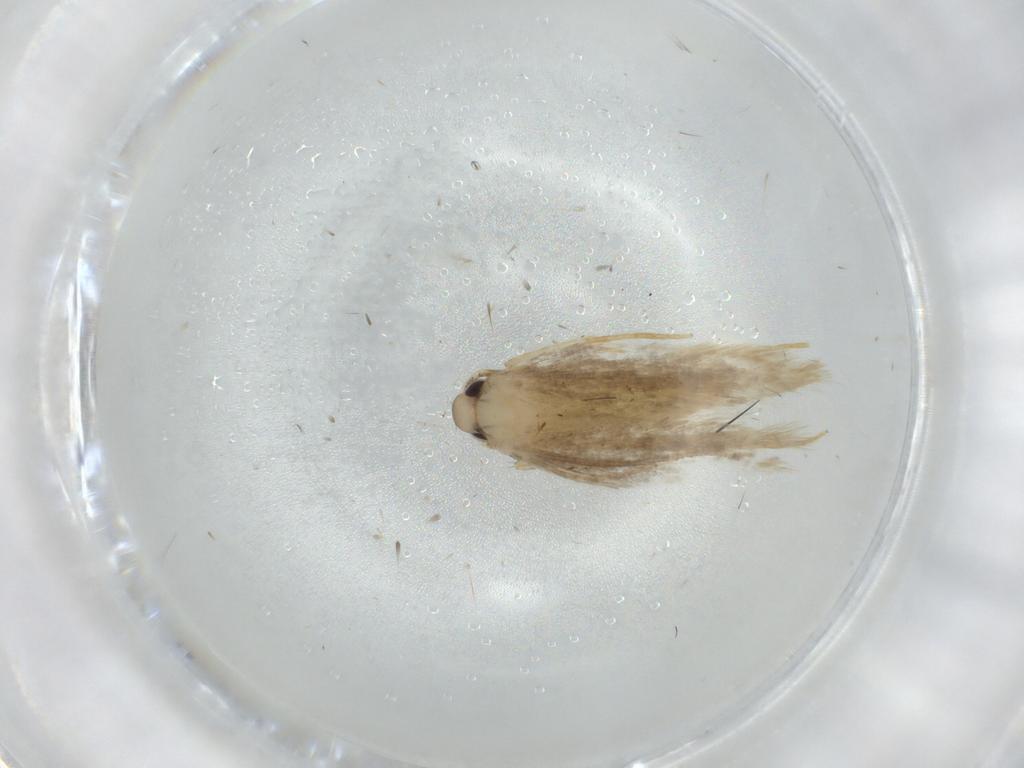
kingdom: Animalia
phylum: Arthropoda
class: Insecta
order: Lepidoptera
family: Gelechiidae
